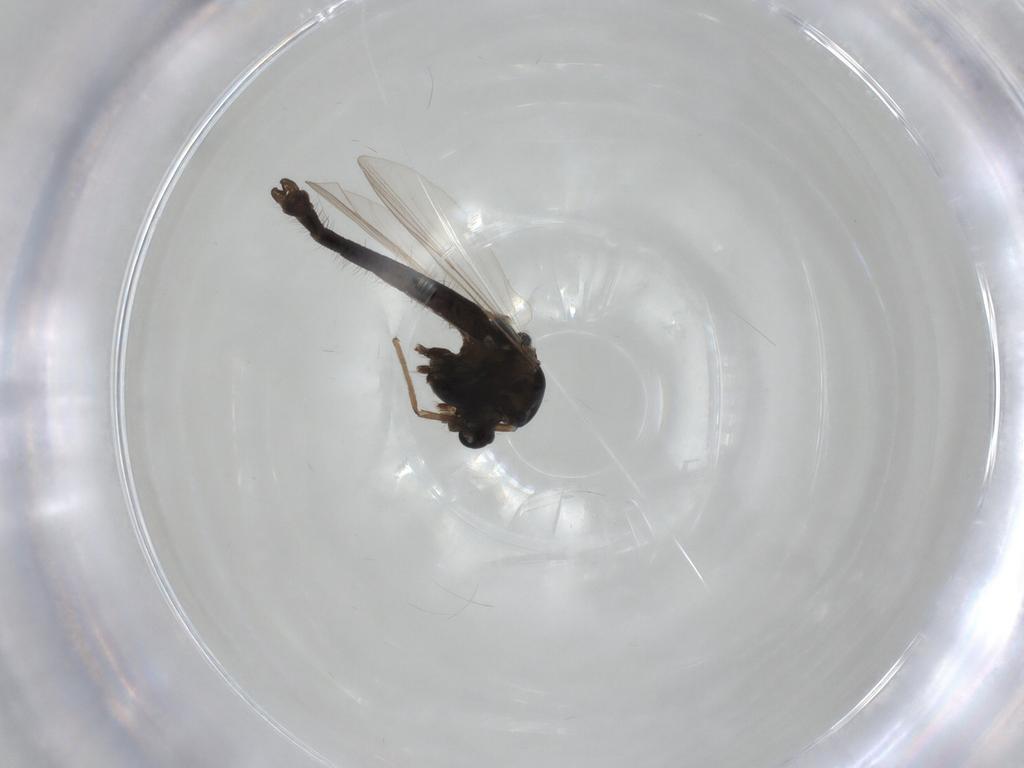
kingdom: Animalia
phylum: Arthropoda
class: Insecta
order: Diptera
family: Chironomidae
